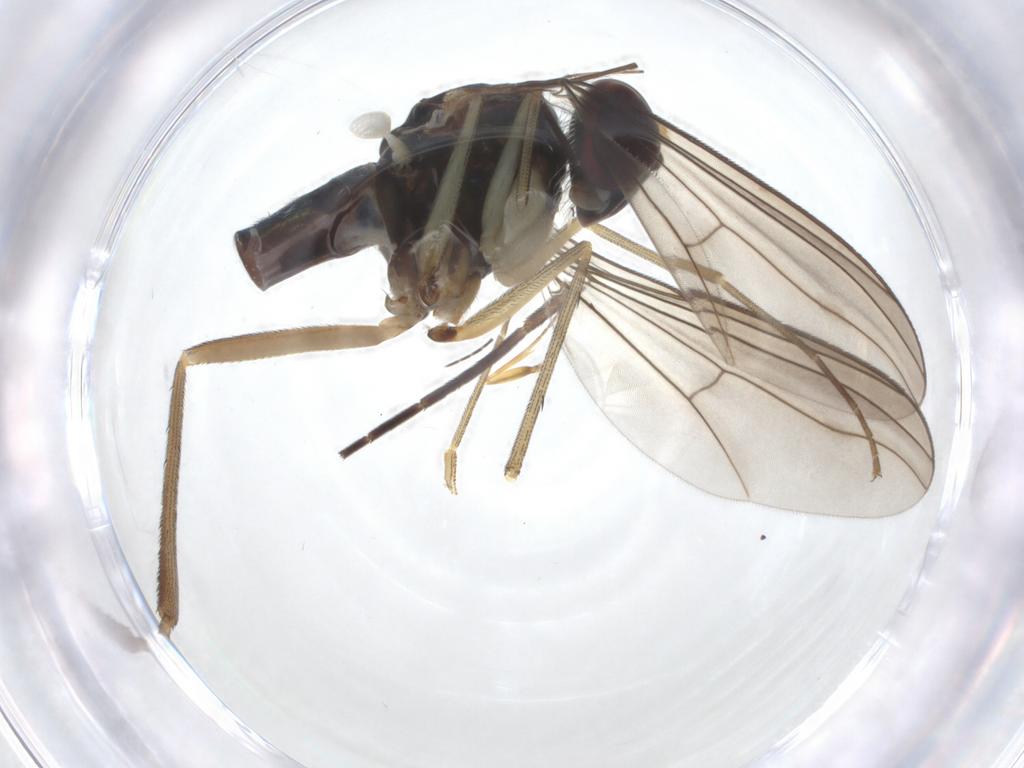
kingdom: Animalia
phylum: Arthropoda
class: Insecta
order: Diptera
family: Dolichopodidae
